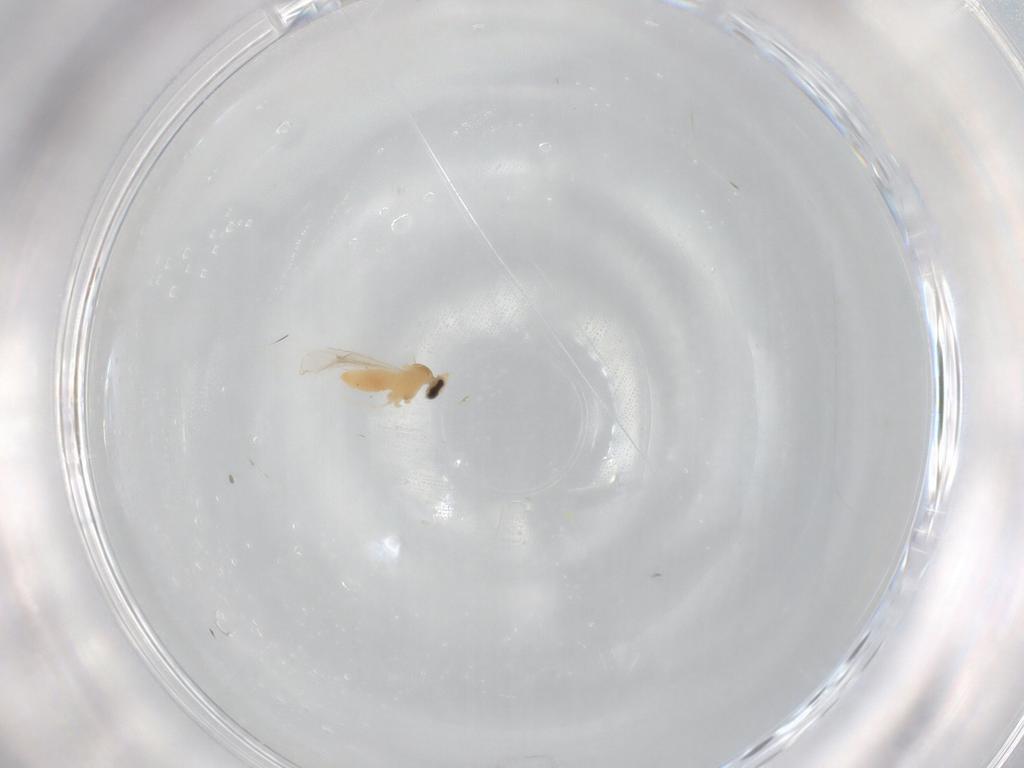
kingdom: Animalia
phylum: Arthropoda
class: Insecta
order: Diptera
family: Cecidomyiidae
